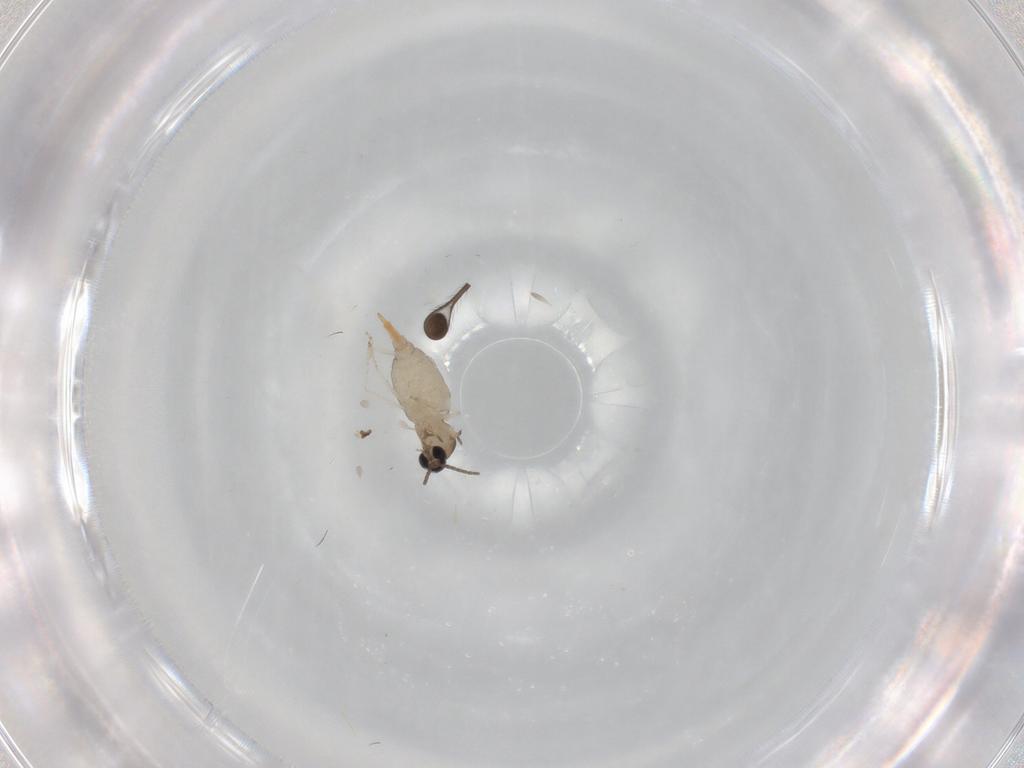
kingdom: Animalia
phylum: Arthropoda
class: Insecta
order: Diptera
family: Cecidomyiidae
